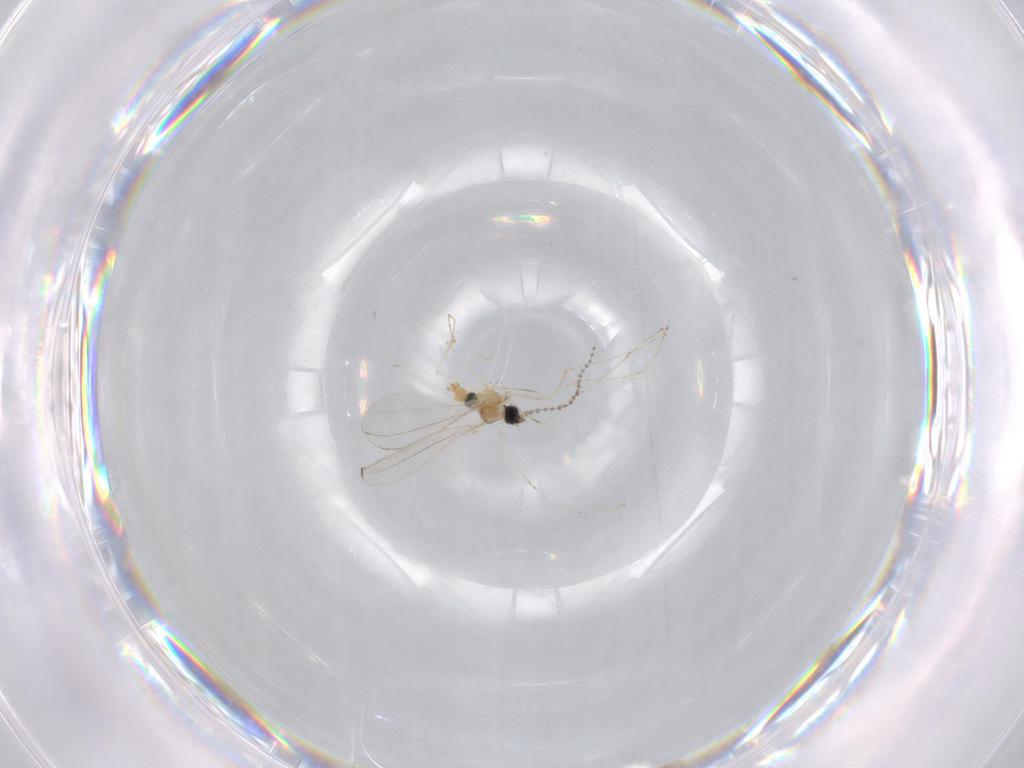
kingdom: Animalia
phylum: Arthropoda
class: Insecta
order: Diptera
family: Cecidomyiidae
